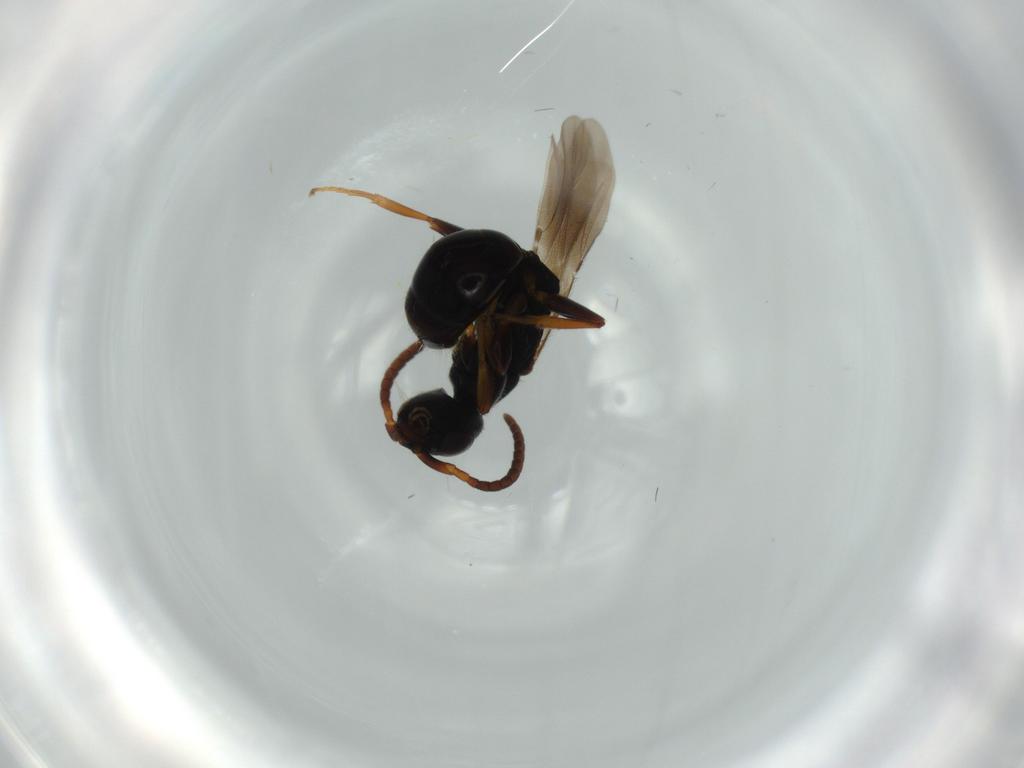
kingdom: Animalia
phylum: Arthropoda
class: Insecta
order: Hymenoptera
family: Bethylidae
